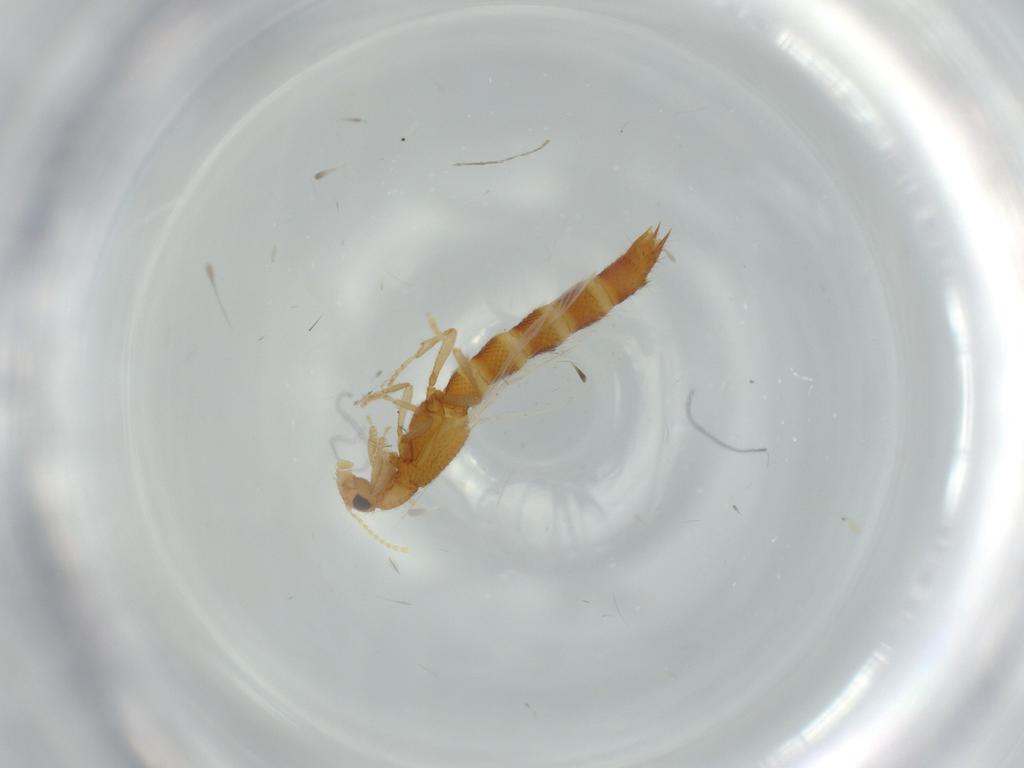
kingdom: Animalia
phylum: Arthropoda
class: Insecta
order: Coleoptera
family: Staphylinidae
